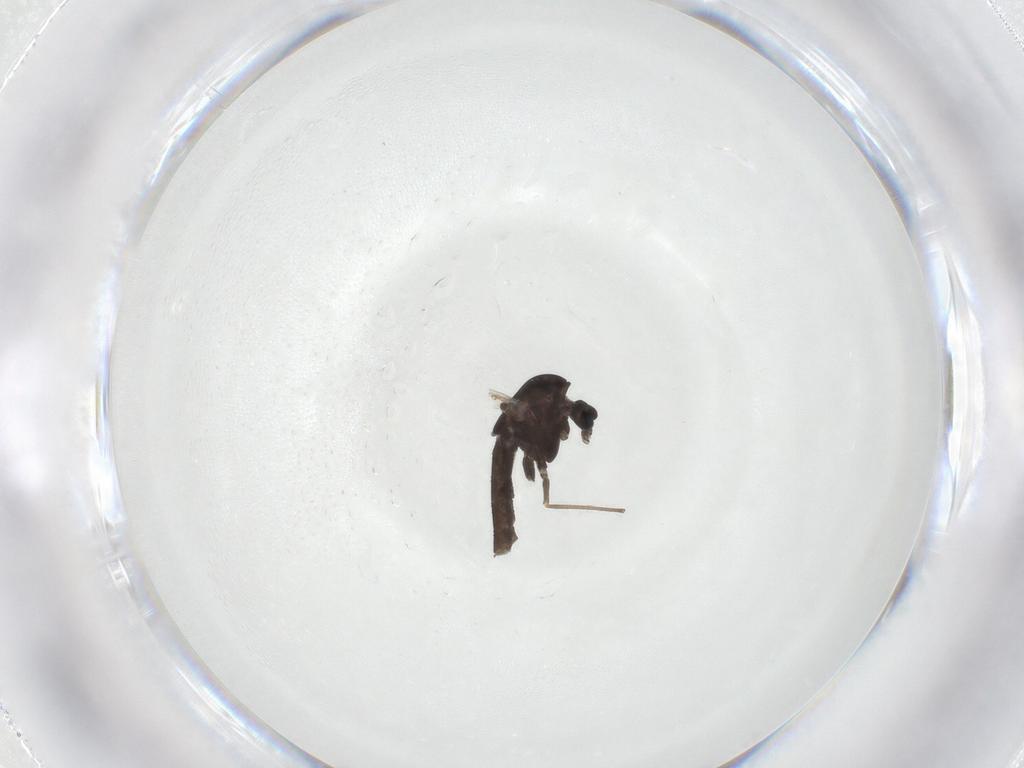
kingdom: Animalia
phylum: Arthropoda
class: Insecta
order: Diptera
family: Chironomidae
